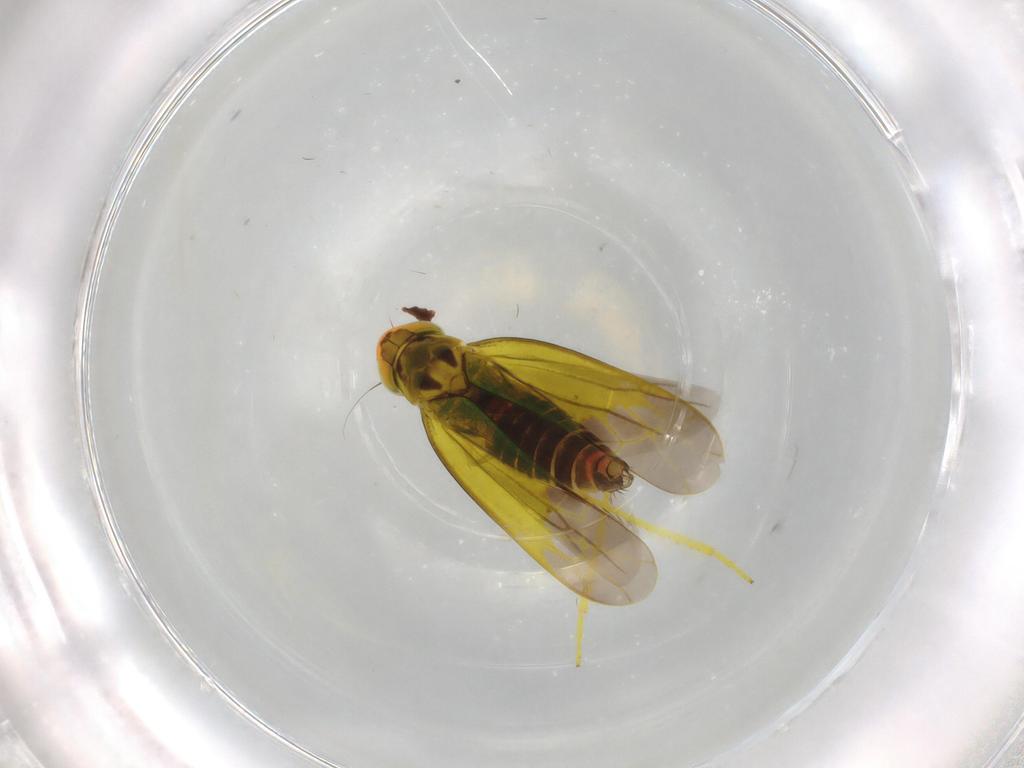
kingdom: Animalia
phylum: Arthropoda
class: Insecta
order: Hemiptera
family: Cicadellidae
